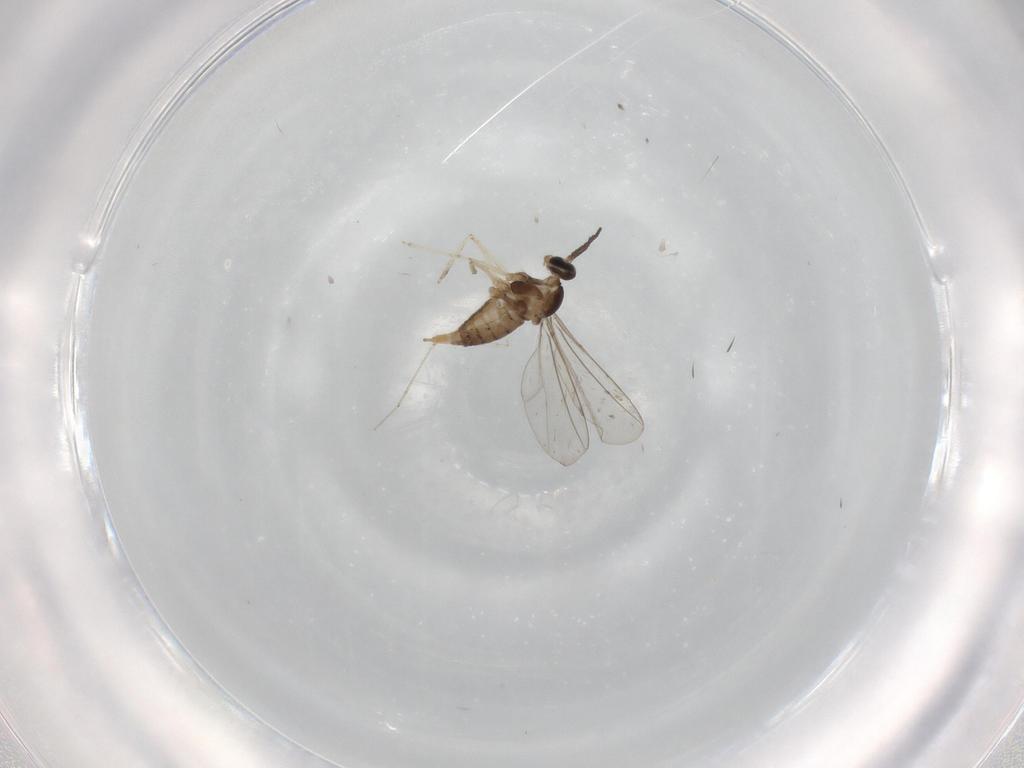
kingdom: Animalia
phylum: Arthropoda
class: Insecta
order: Diptera
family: Cecidomyiidae
